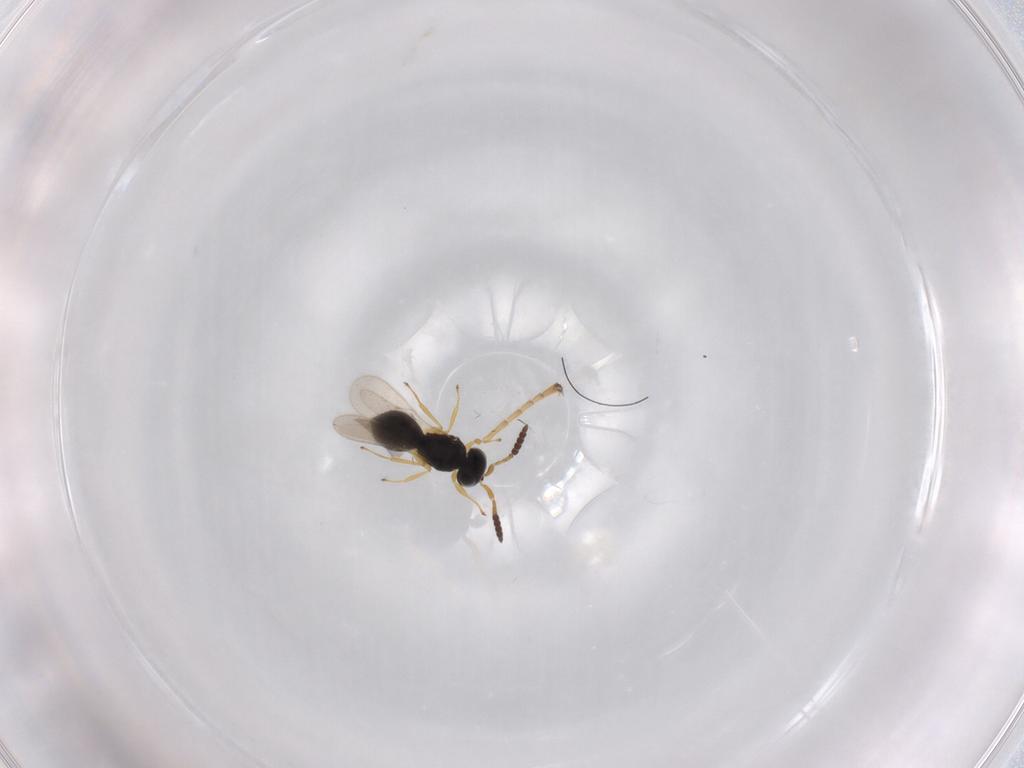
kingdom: Animalia
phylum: Arthropoda
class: Insecta
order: Hymenoptera
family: Scelionidae
